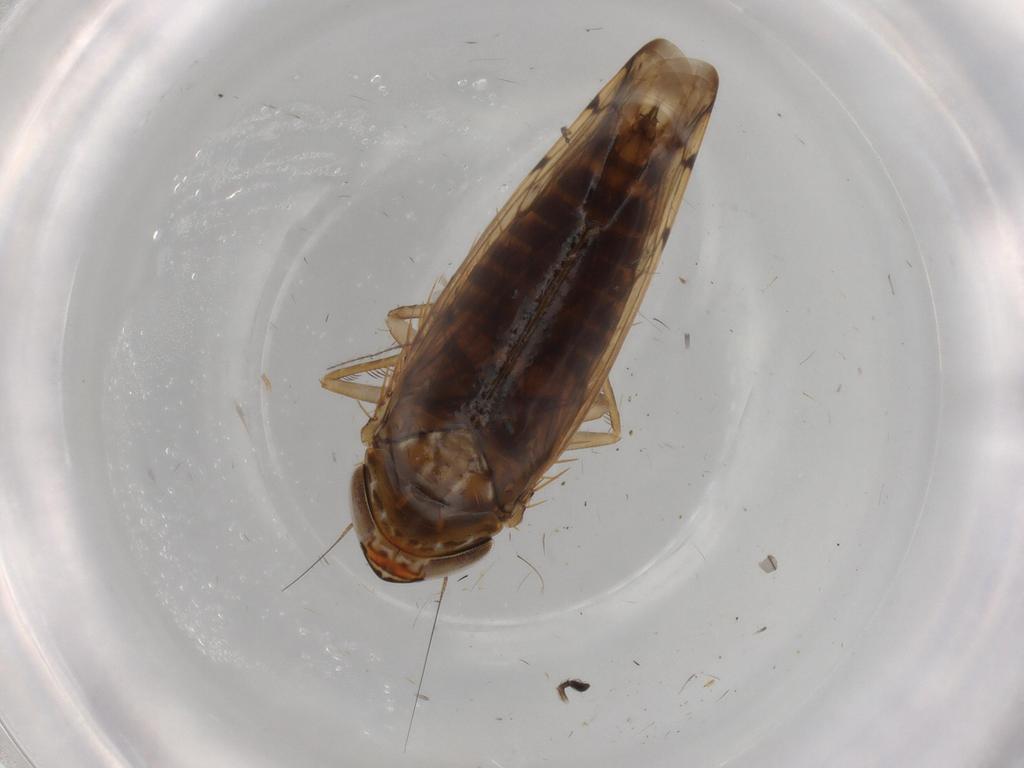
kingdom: Animalia
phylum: Arthropoda
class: Insecta
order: Hemiptera
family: Cicadellidae
